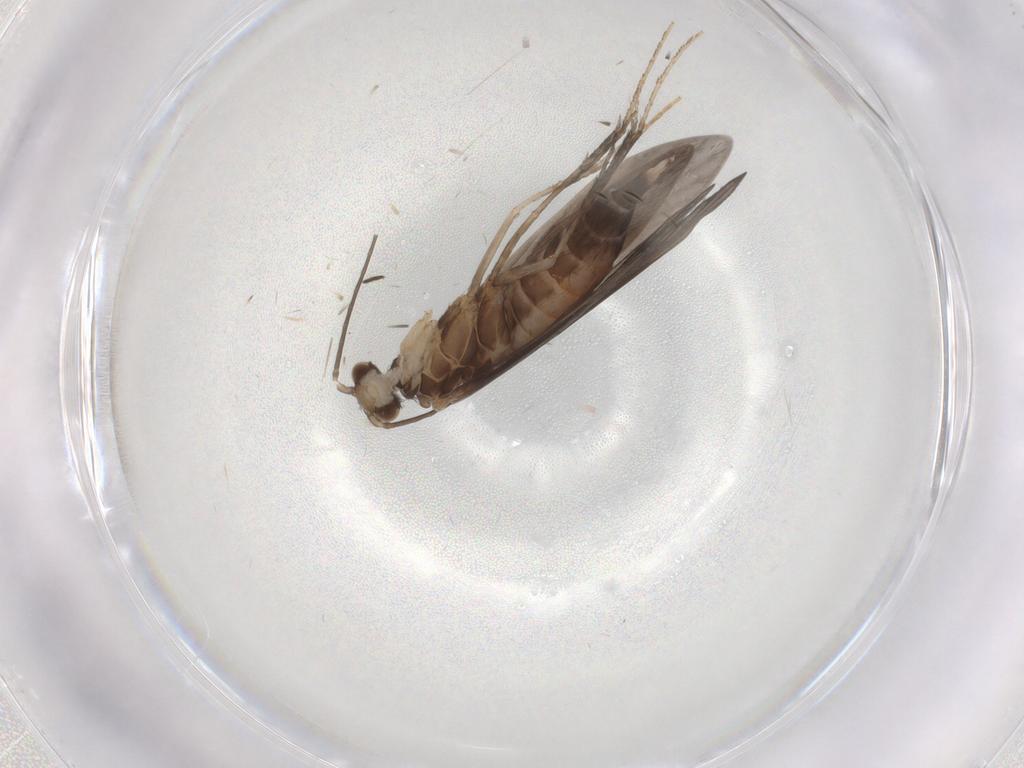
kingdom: Animalia
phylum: Arthropoda
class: Insecta
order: Trichoptera
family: Xiphocentronidae
